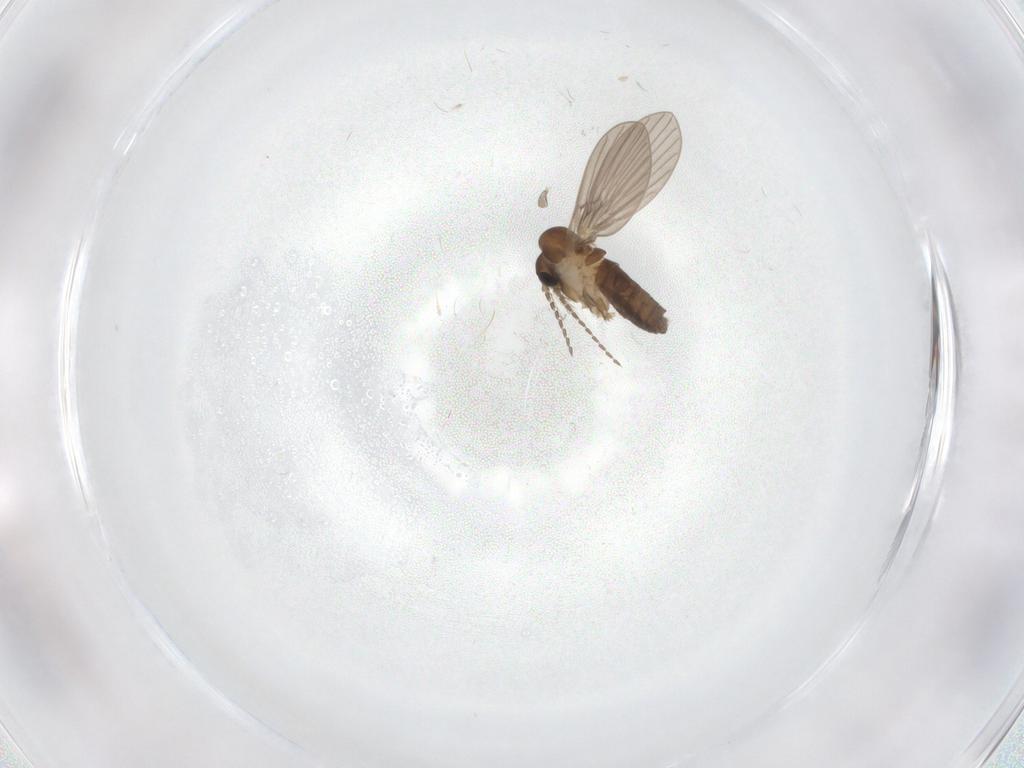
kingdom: Animalia
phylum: Arthropoda
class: Insecta
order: Diptera
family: Psychodidae
